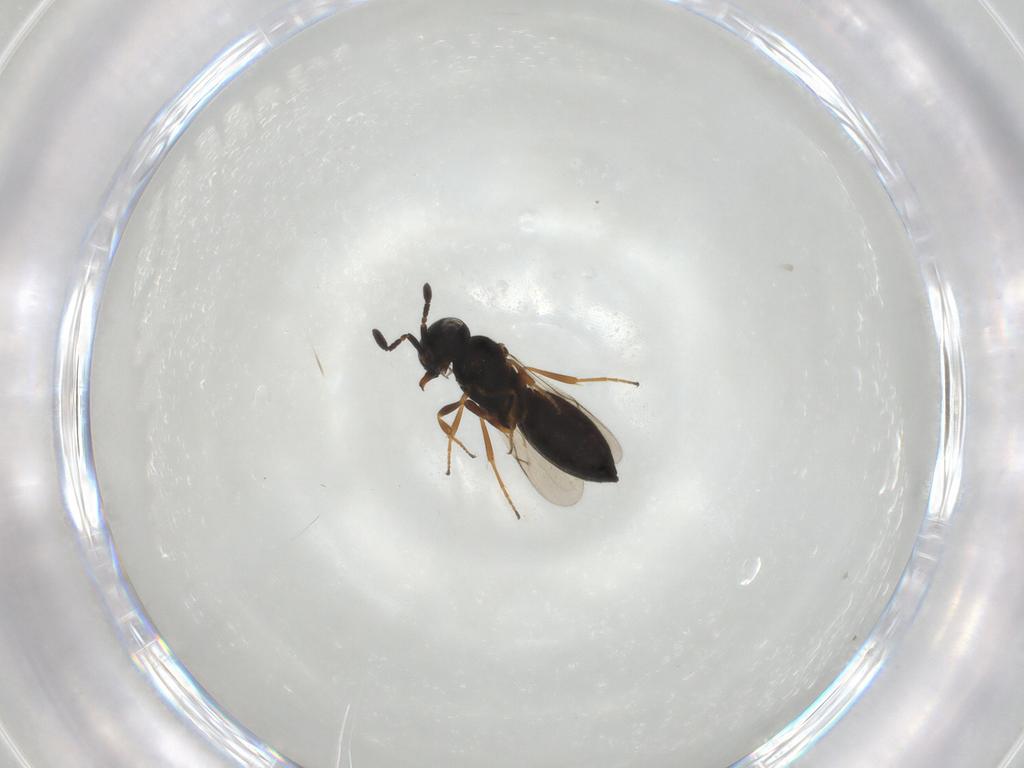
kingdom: Animalia
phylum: Arthropoda
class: Insecta
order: Hymenoptera
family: Scelionidae
